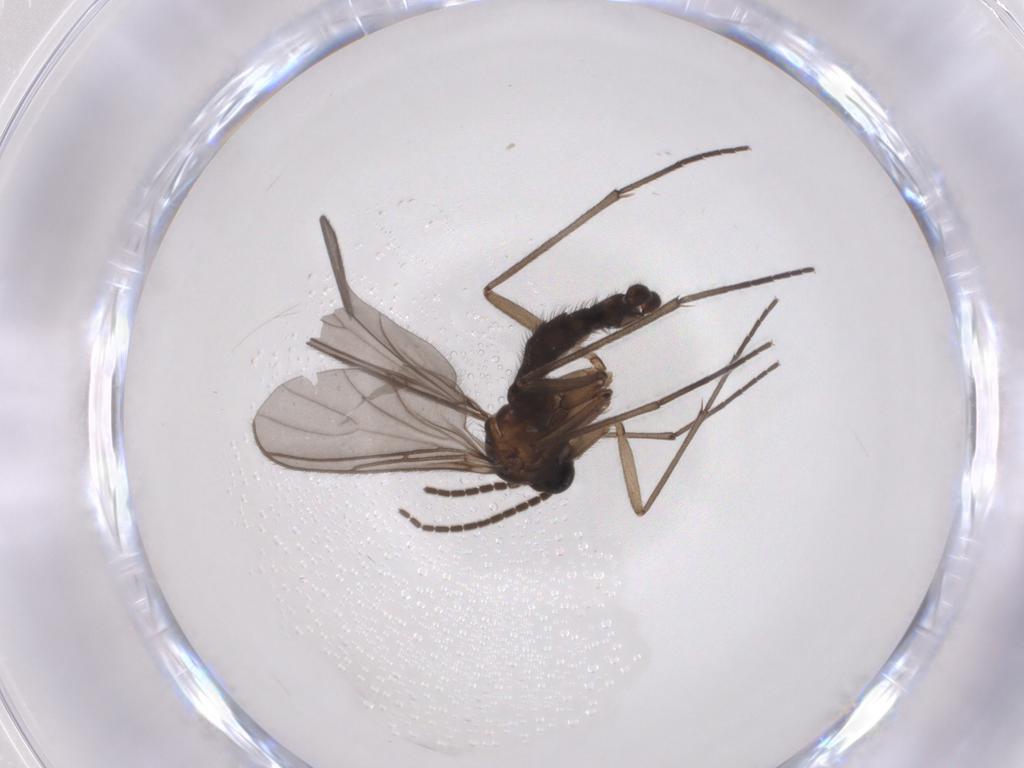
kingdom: Animalia
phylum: Arthropoda
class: Insecta
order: Diptera
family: Sciaridae
